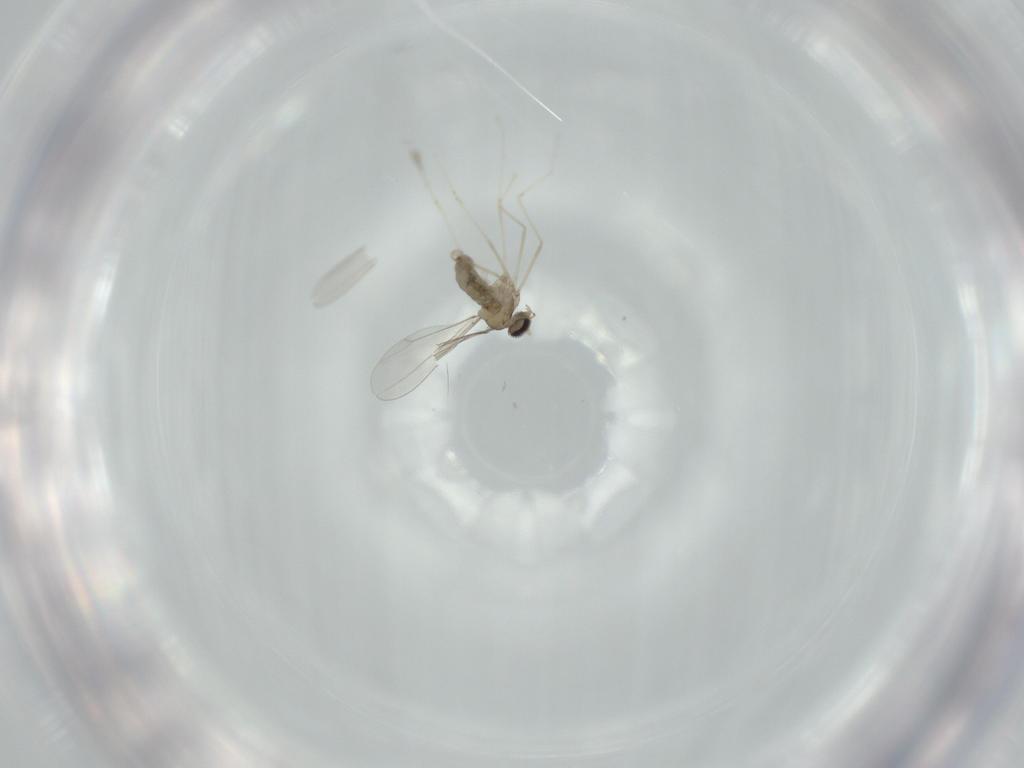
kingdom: Animalia
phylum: Arthropoda
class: Insecta
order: Diptera
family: Cecidomyiidae
